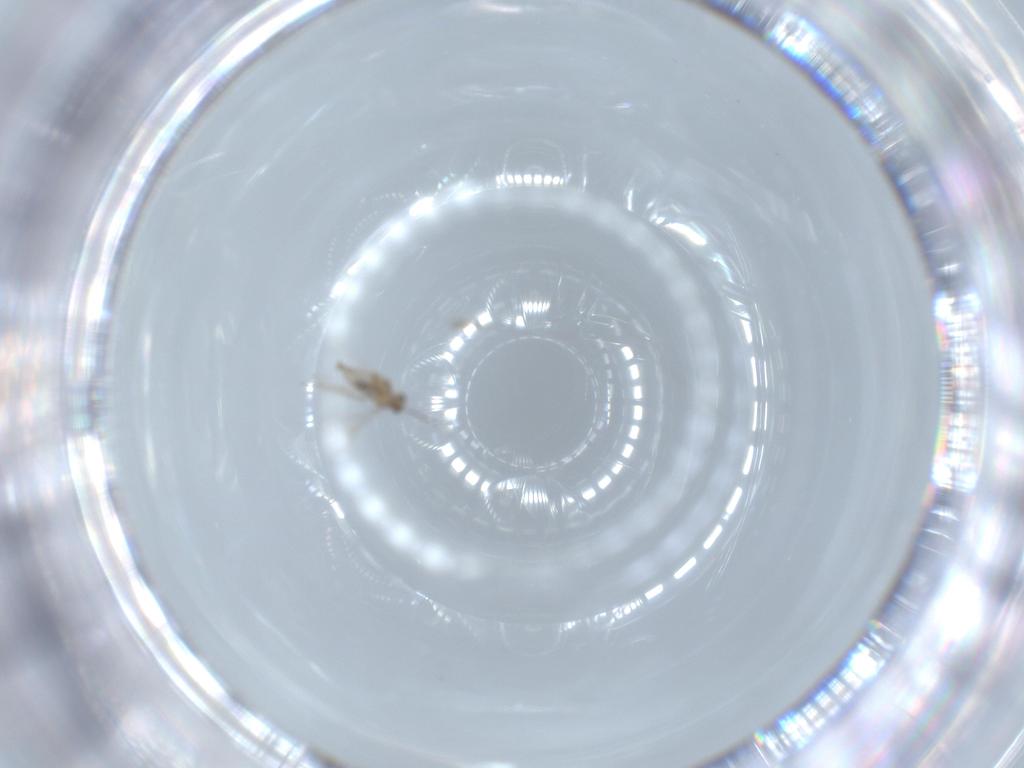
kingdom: Animalia
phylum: Arthropoda
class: Insecta
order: Diptera
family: Cecidomyiidae
